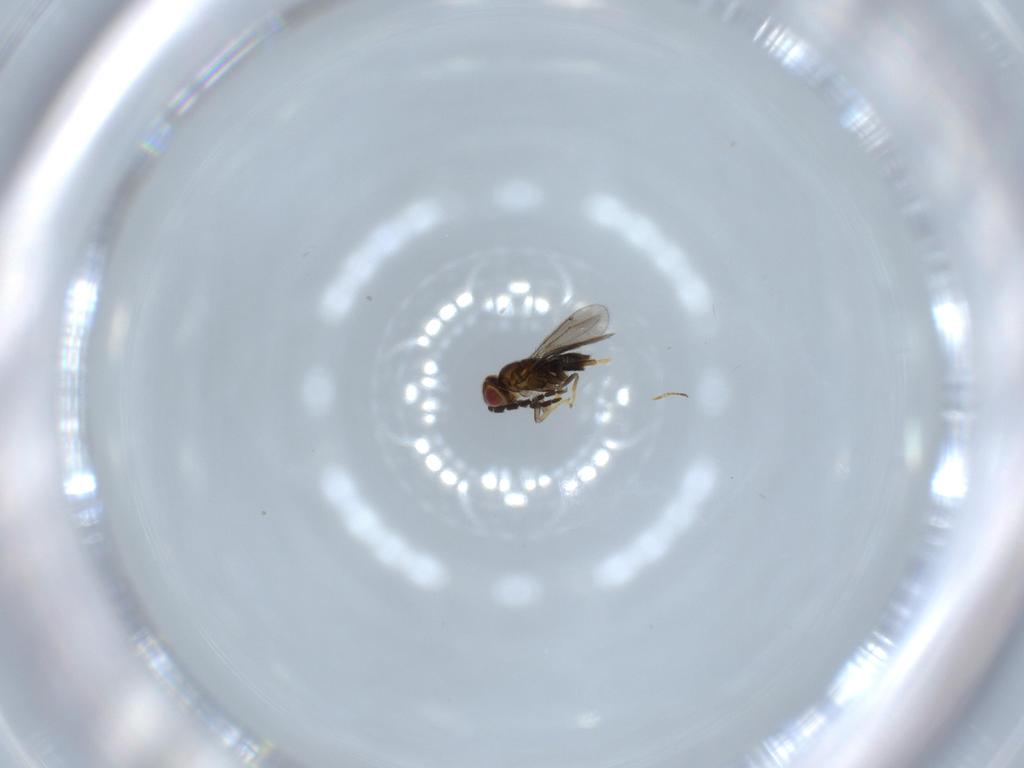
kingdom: Animalia
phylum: Arthropoda
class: Insecta
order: Hymenoptera
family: Aphelinidae
